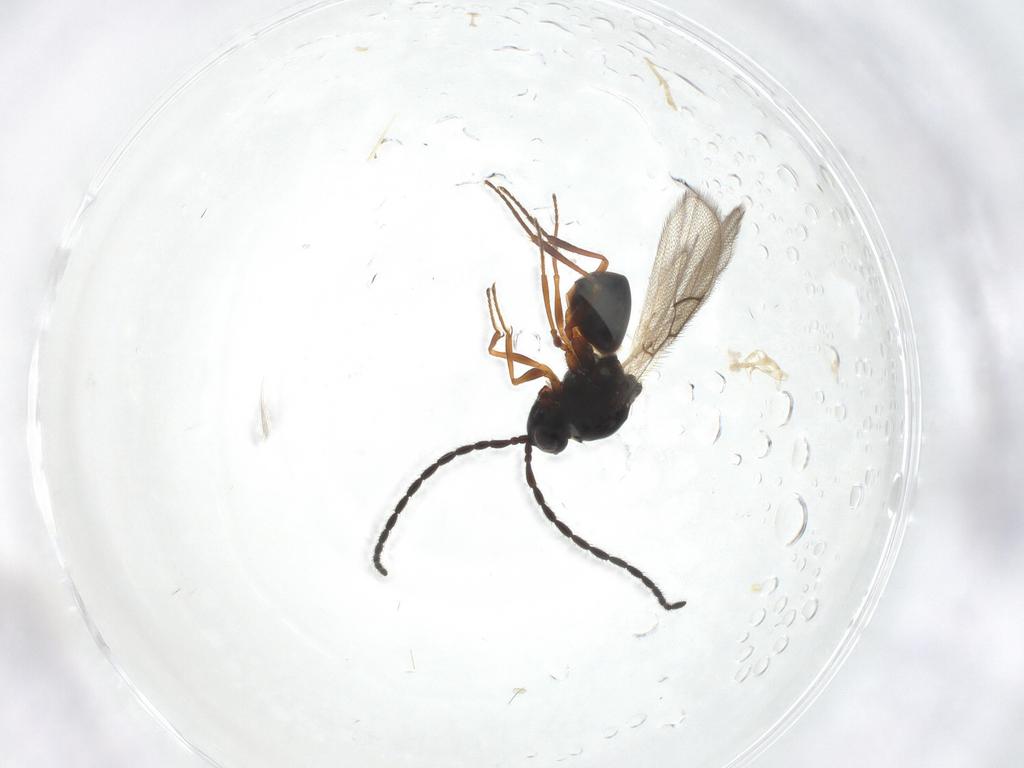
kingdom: Animalia
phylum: Arthropoda
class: Insecta
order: Hymenoptera
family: Figitidae
